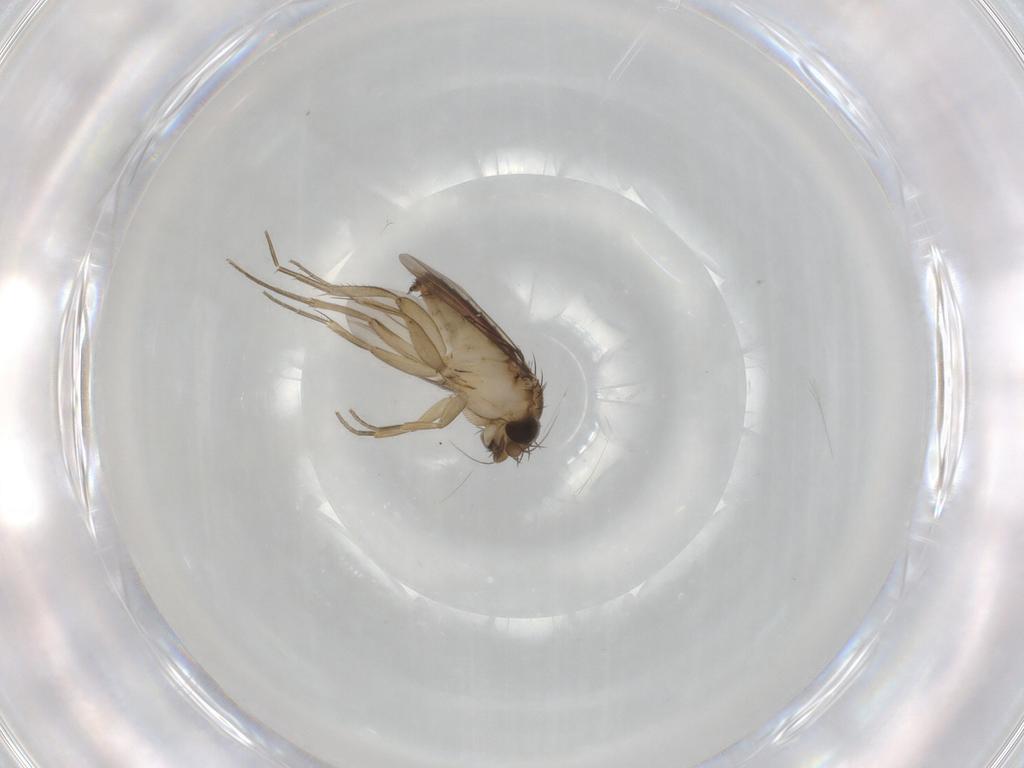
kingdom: Animalia
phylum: Arthropoda
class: Insecta
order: Diptera
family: Phoridae
